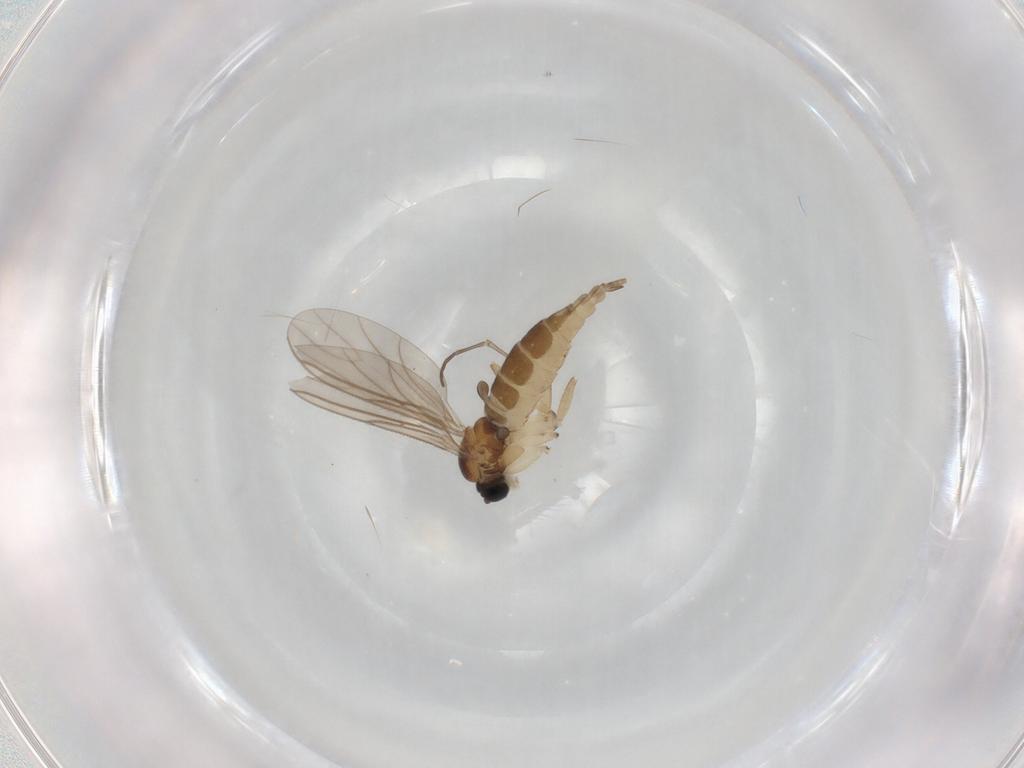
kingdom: Animalia
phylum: Arthropoda
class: Insecta
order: Diptera
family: Sciaridae
